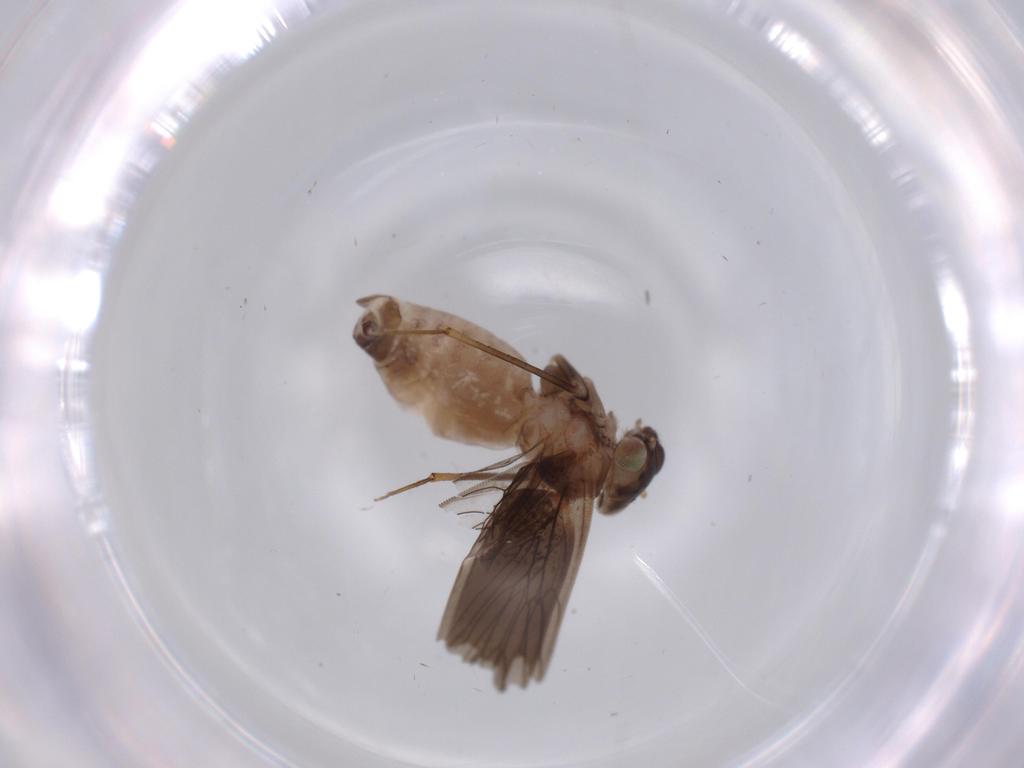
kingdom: Animalia
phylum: Arthropoda
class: Insecta
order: Psocodea
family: Lepidopsocidae
